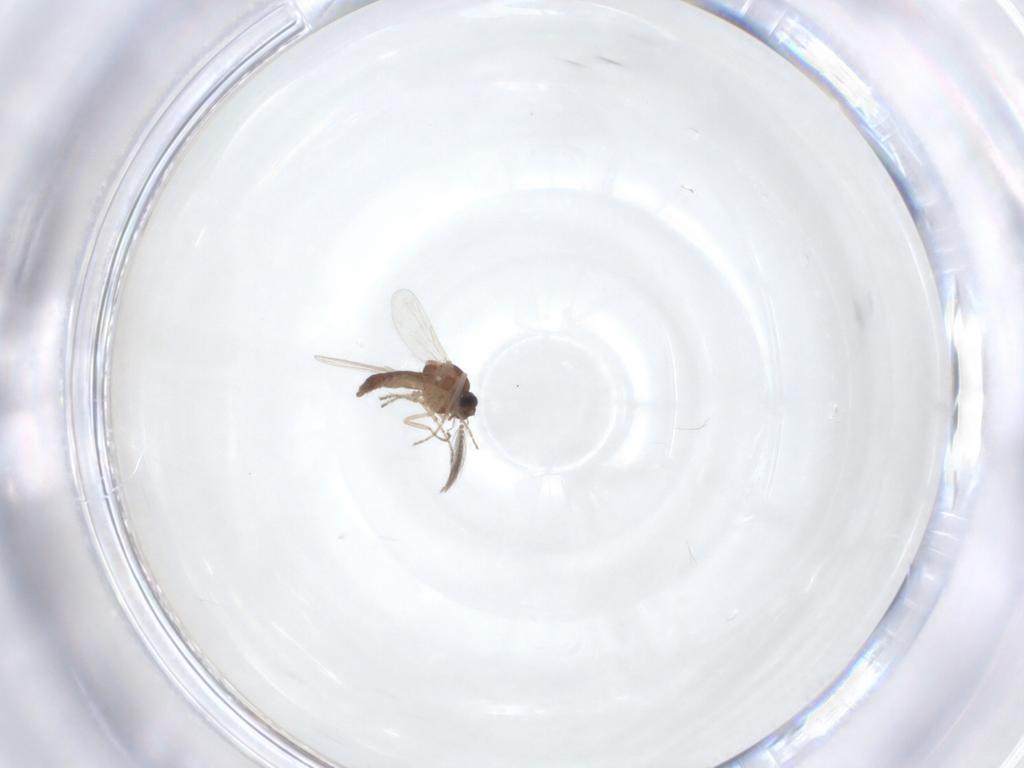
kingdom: Animalia
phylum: Arthropoda
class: Insecta
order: Diptera
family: Ceratopogonidae
